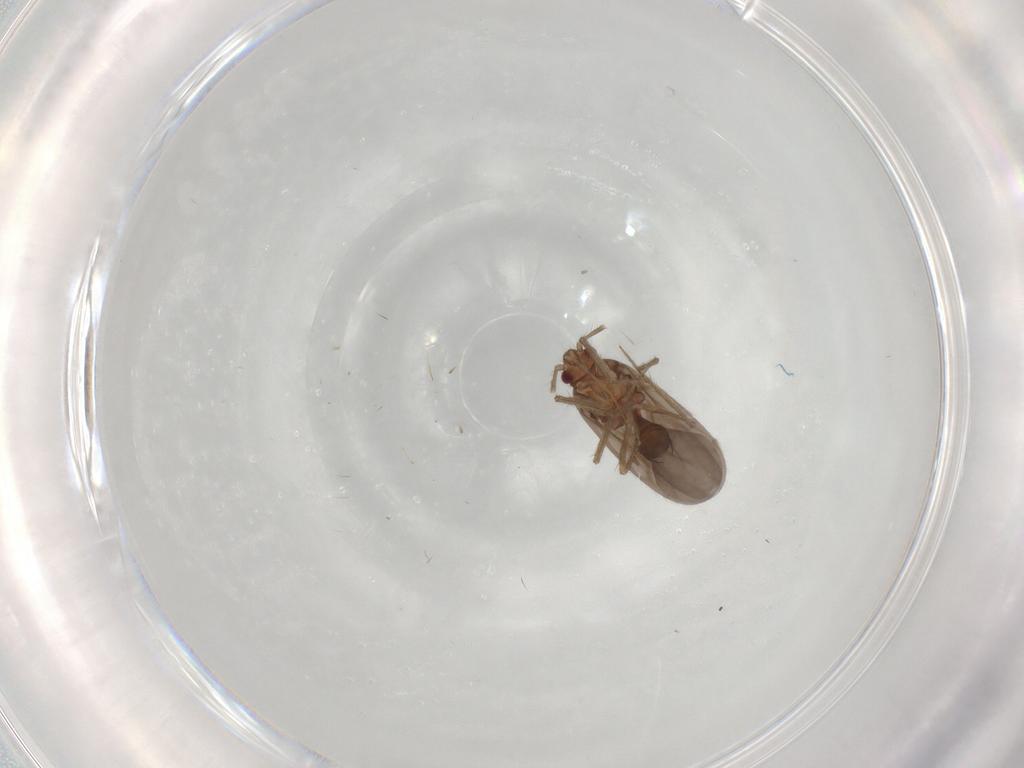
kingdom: Animalia
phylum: Arthropoda
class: Insecta
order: Hemiptera
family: Ceratocombidae
